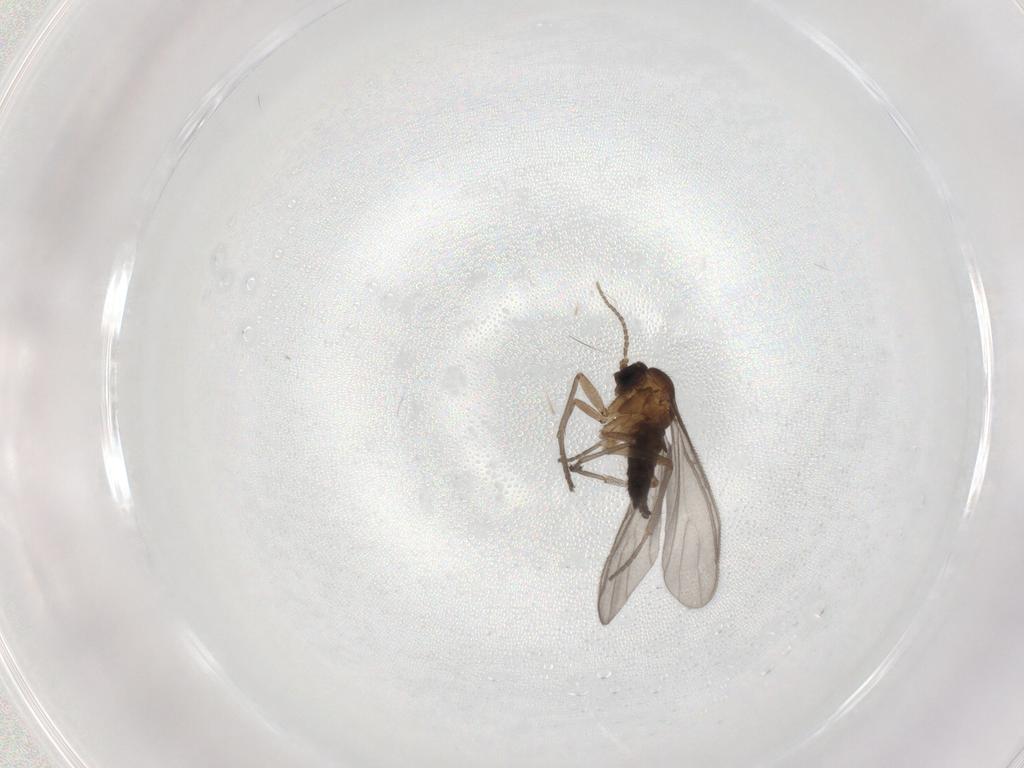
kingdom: Animalia
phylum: Arthropoda
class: Insecta
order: Diptera
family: Sciaridae
